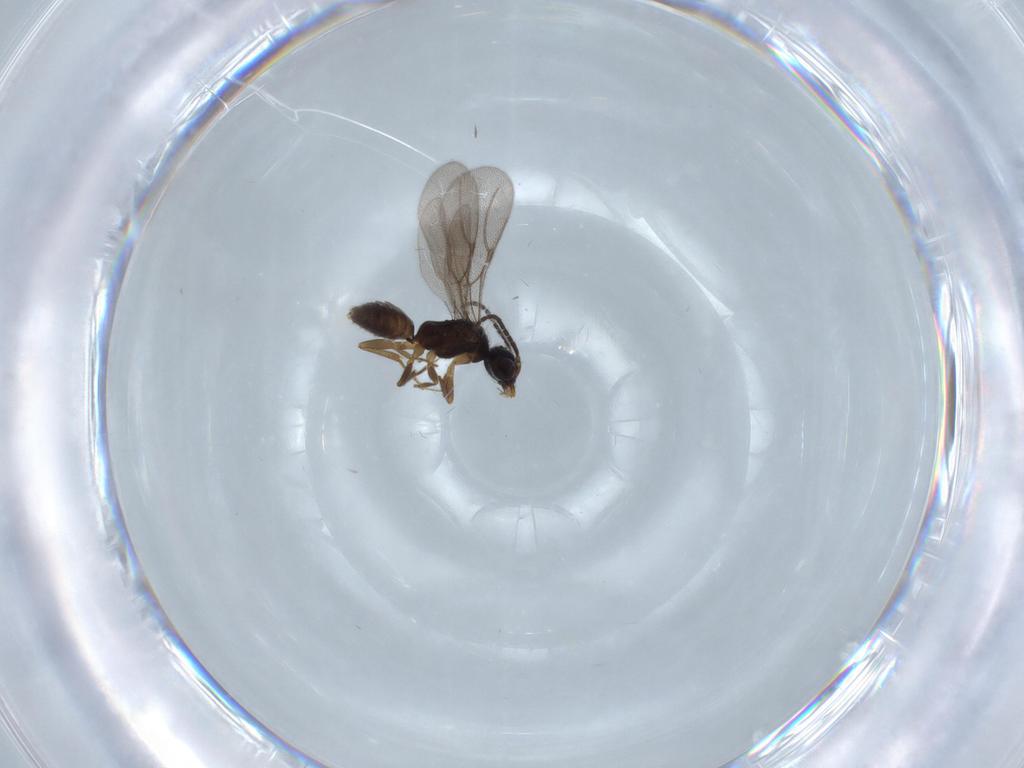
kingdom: Animalia
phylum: Arthropoda
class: Insecta
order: Hymenoptera
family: Bethylidae
